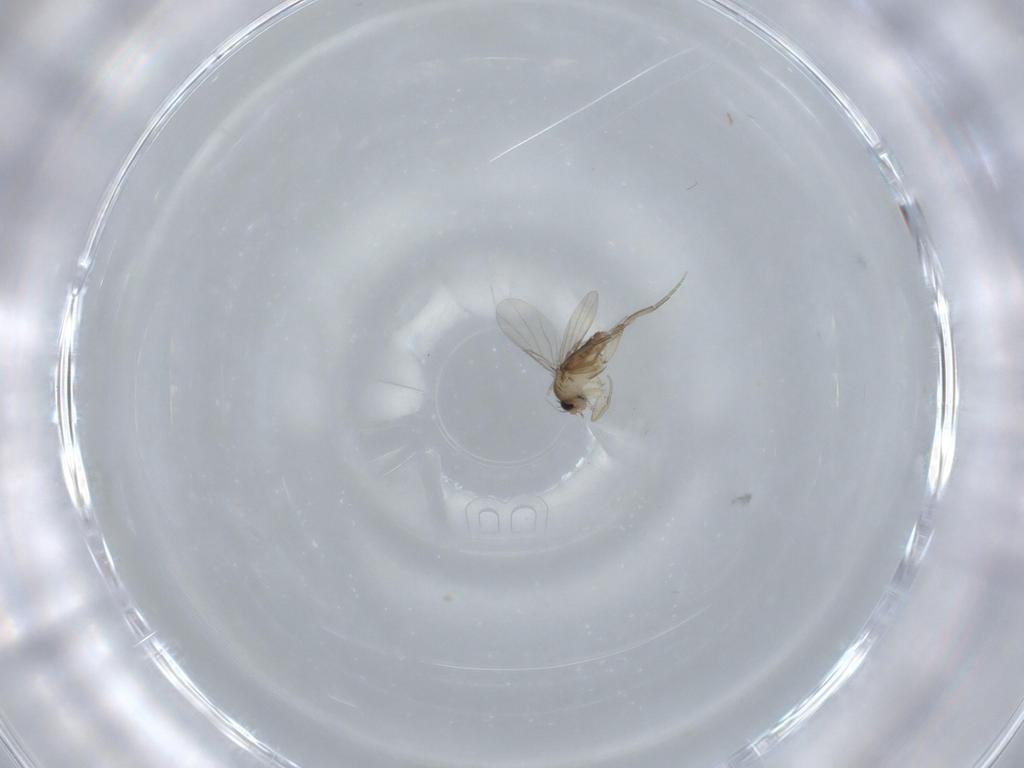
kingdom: Animalia
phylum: Arthropoda
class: Insecta
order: Diptera
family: Phoridae
